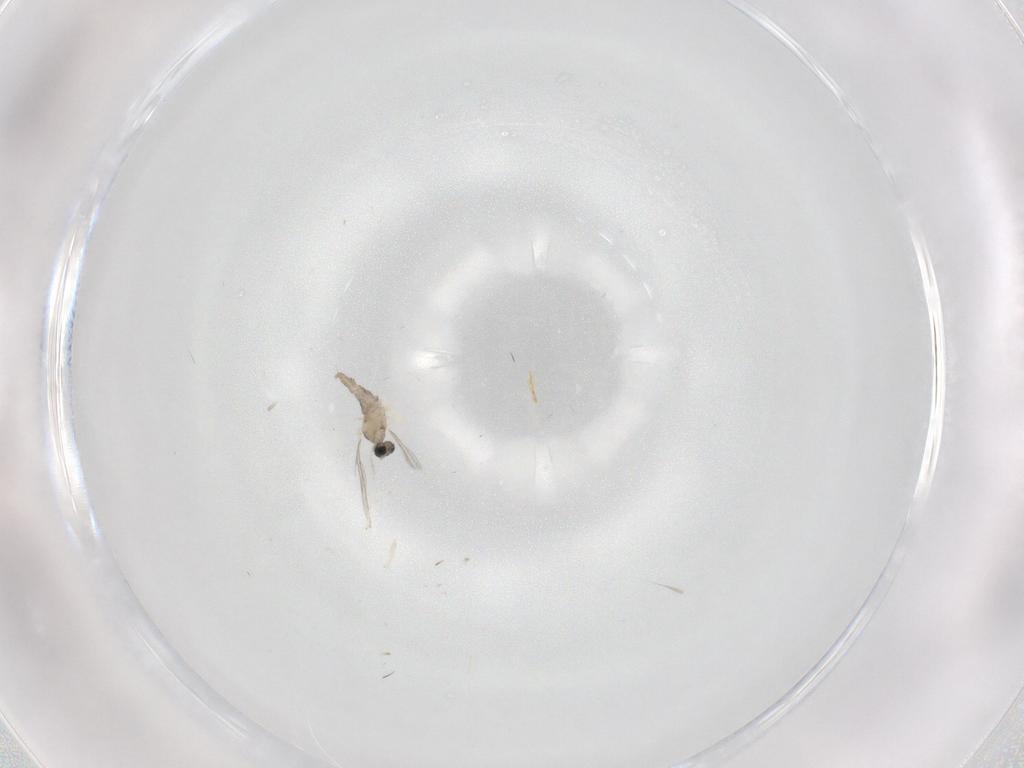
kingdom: Animalia
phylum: Arthropoda
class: Insecta
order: Diptera
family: Cecidomyiidae
